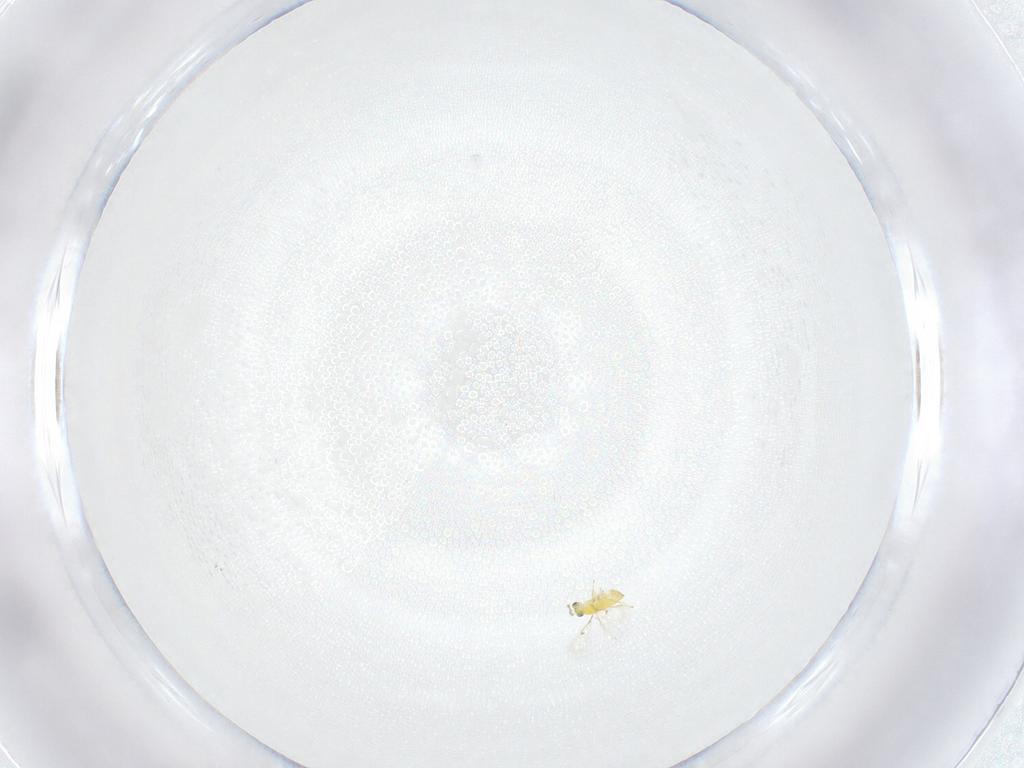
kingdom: Animalia
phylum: Arthropoda
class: Insecta
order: Hymenoptera
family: Trichogrammatidae
